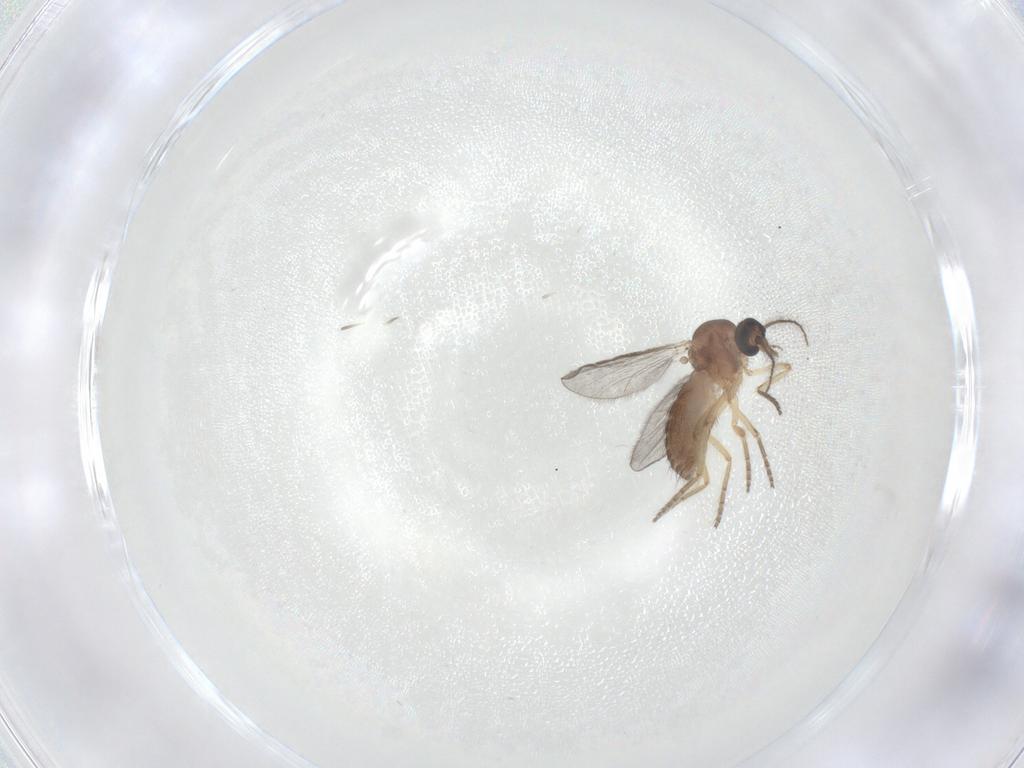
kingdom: Animalia
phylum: Arthropoda
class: Insecta
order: Diptera
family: Ceratopogonidae
